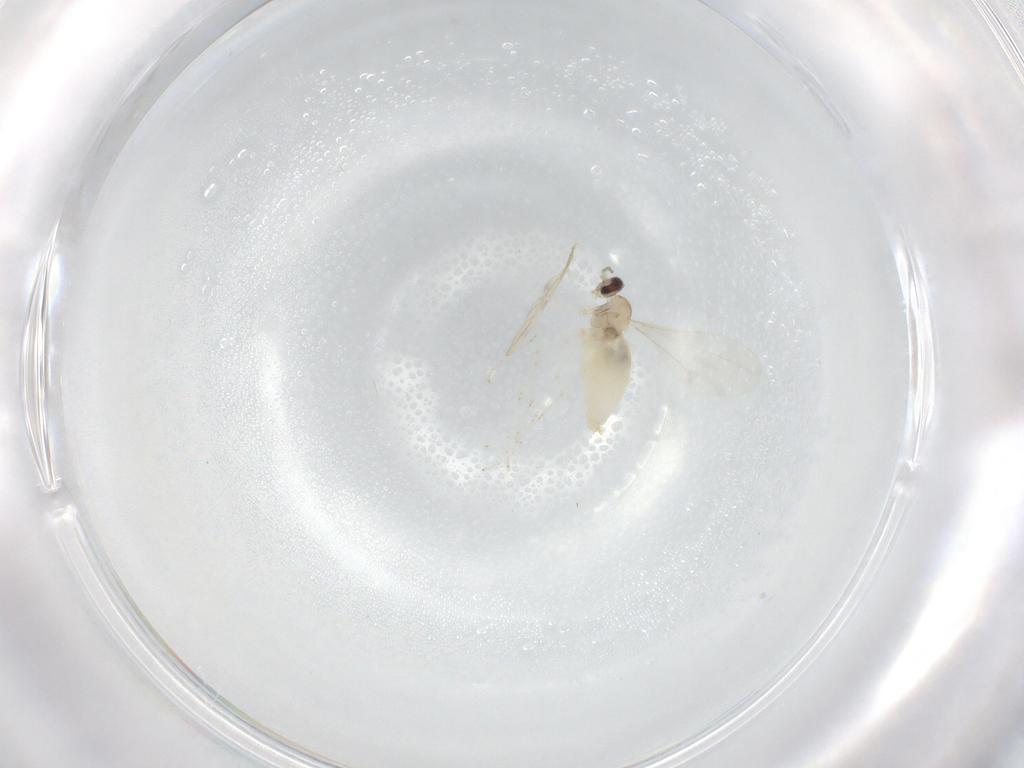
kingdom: Animalia
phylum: Arthropoda
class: Insecta
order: Diptera
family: Cecidomyiidae
